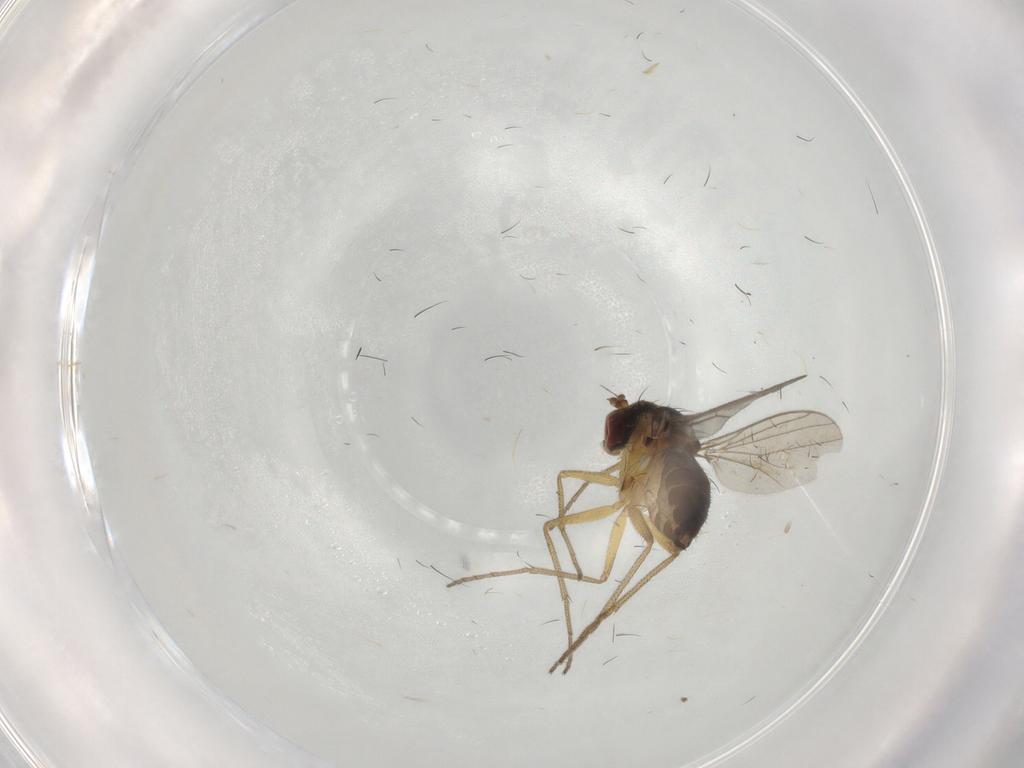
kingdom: Animalia
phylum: Arthropoda
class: Insecta
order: Diptera
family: Dolichopodidae
